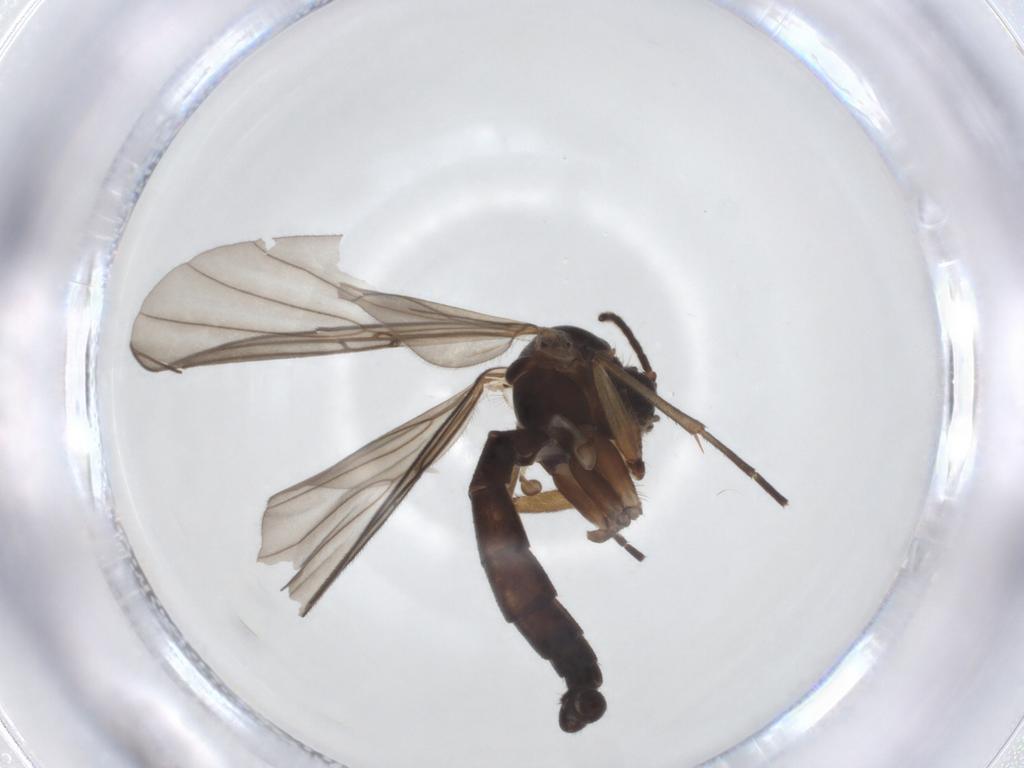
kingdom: Animalia
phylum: Arthropoda
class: Insecta
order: Diptera
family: Mycetophilidae
